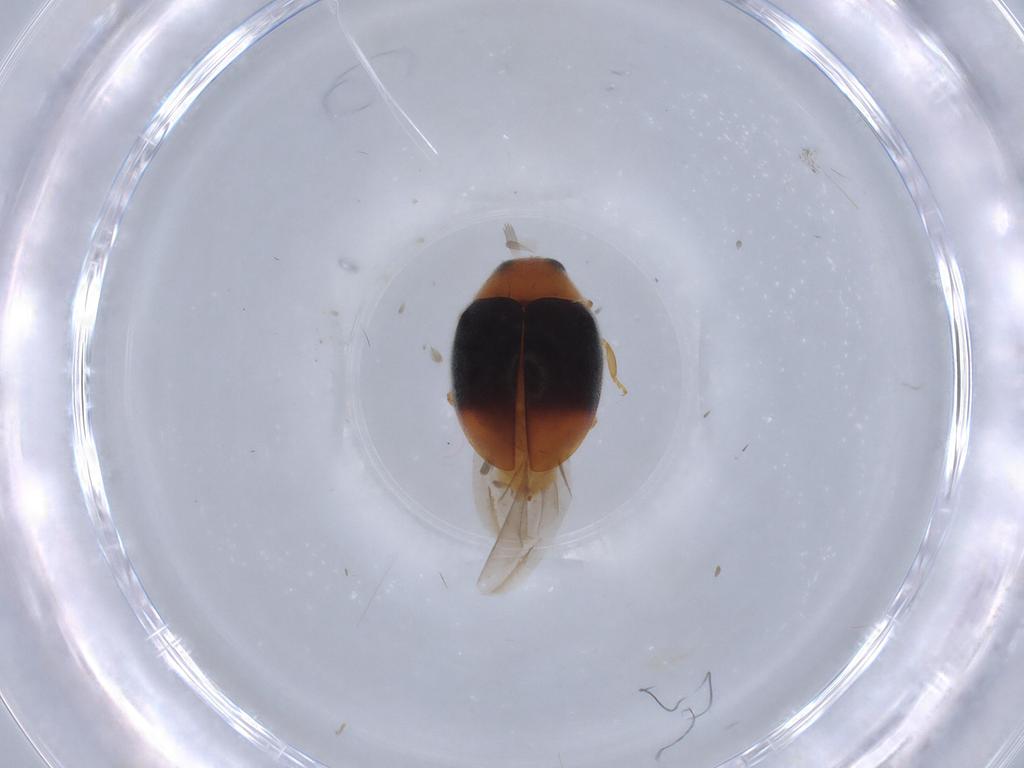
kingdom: Animalia
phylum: Arthropoda
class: Insecta
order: Coleoptera
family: Coccinellidae
